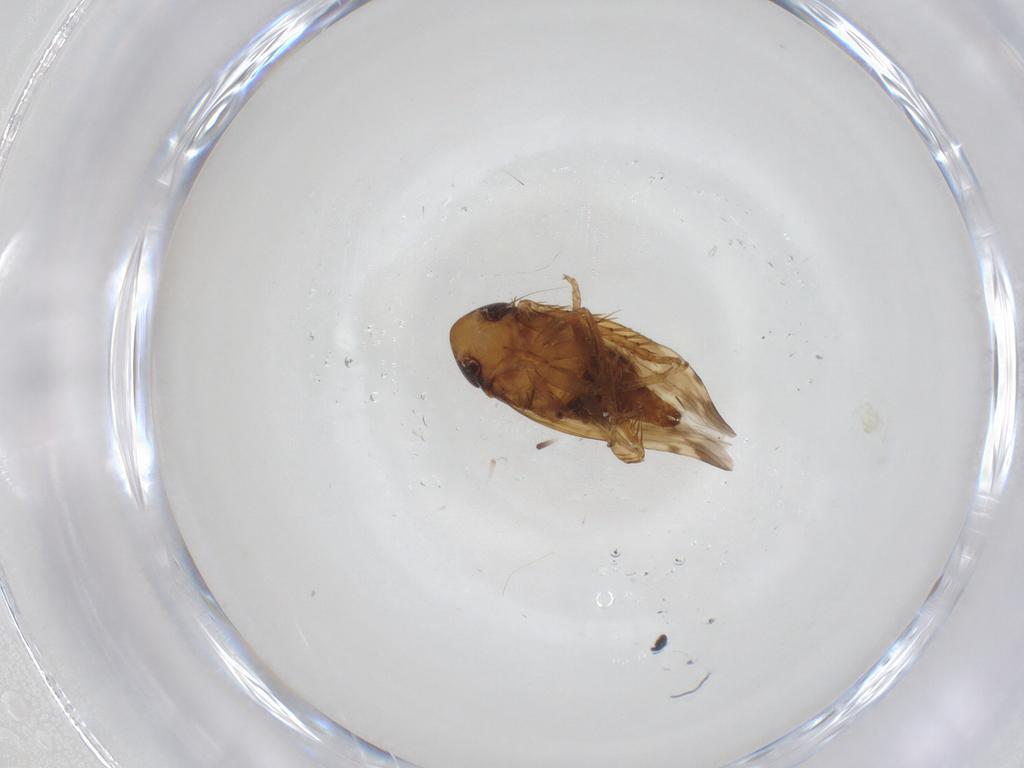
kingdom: Animalia
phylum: Arthropoda
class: Insecta
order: Hemiptera
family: Cicadellidae
